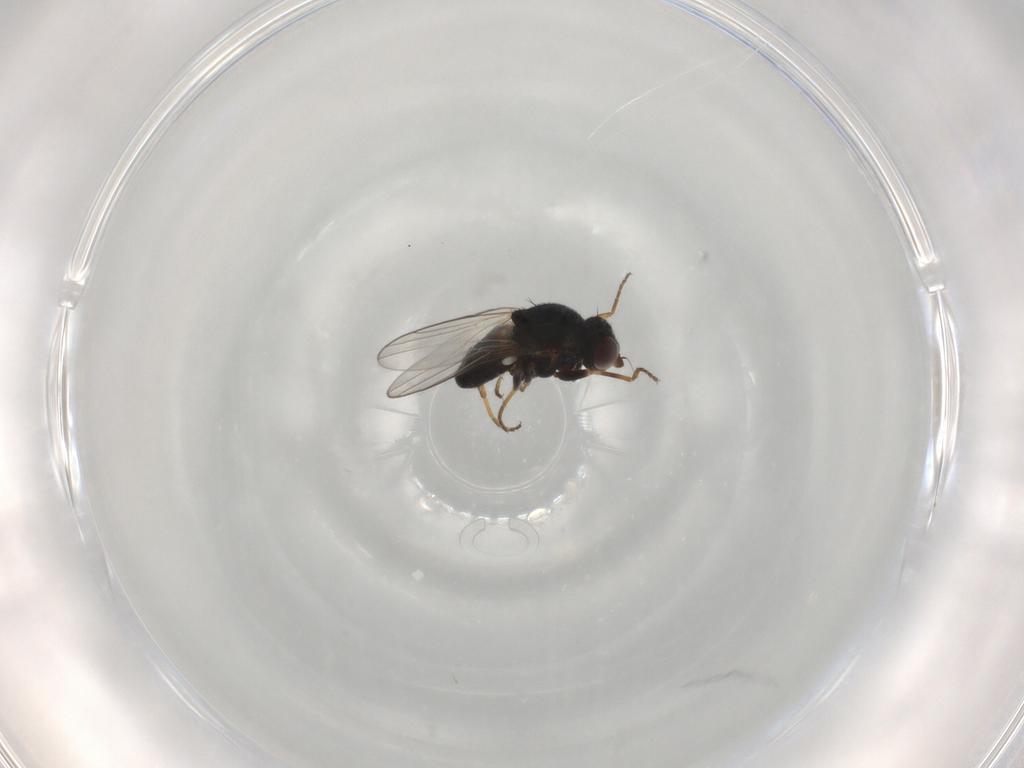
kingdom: Animalia
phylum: Arthropoda
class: Insecta
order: Diptera
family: Chloropidae
